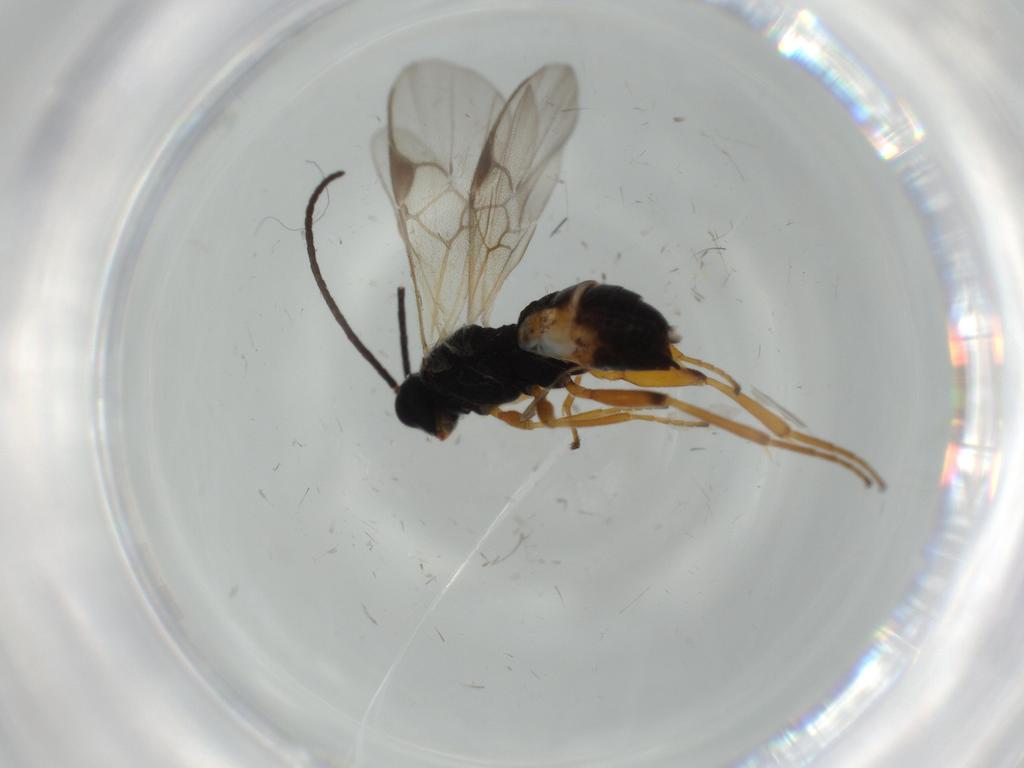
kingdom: Animalia
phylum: Arthropoda
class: Insecta
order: Hymenoptera
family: Braconidae
